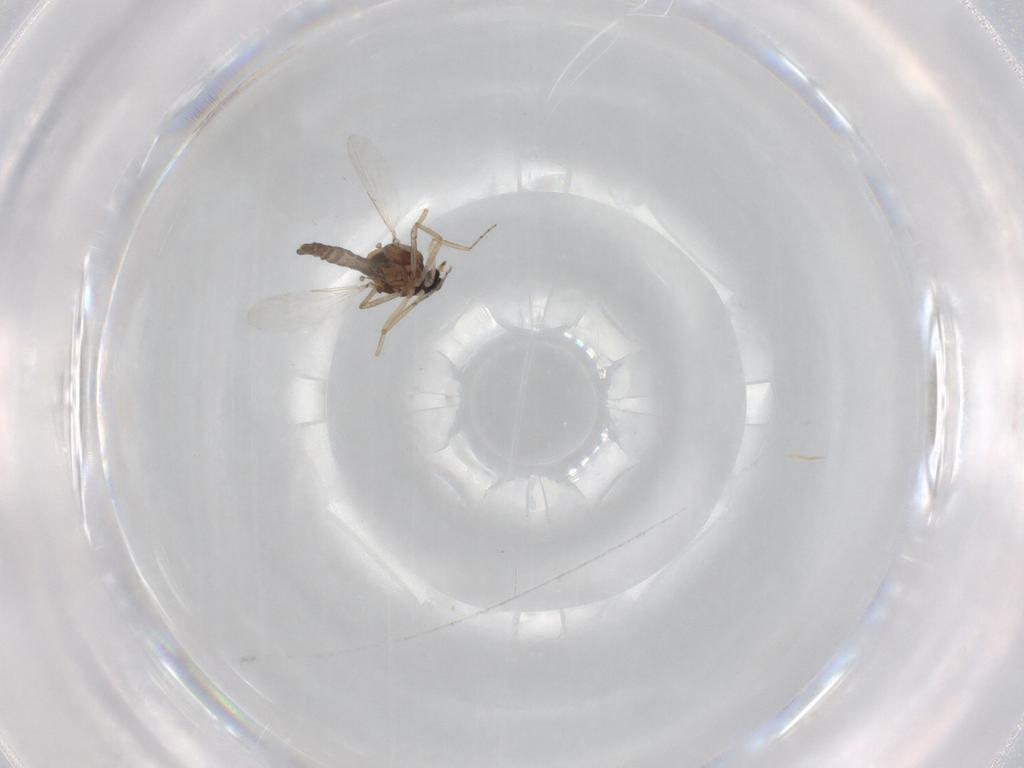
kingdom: Animalia
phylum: Arthropoda
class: Insecta
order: Diptera
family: Ceratopogonidae
